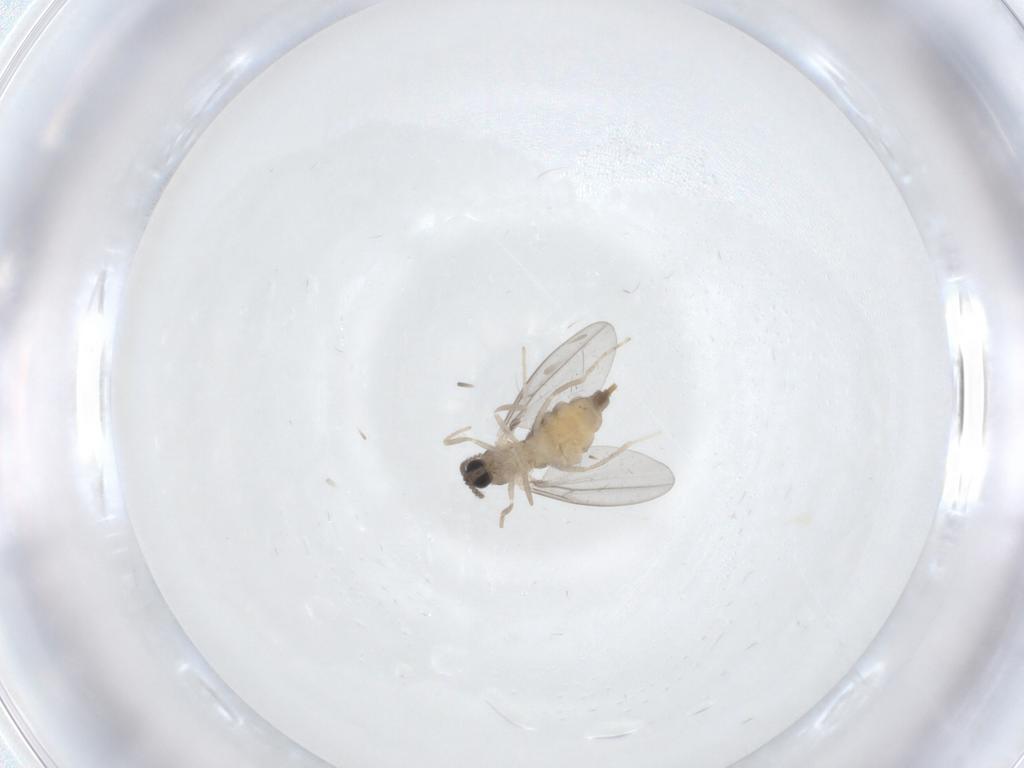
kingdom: Animalia
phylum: Arthropoda
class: Insecta
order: Diptera
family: Cecidomyiidae
